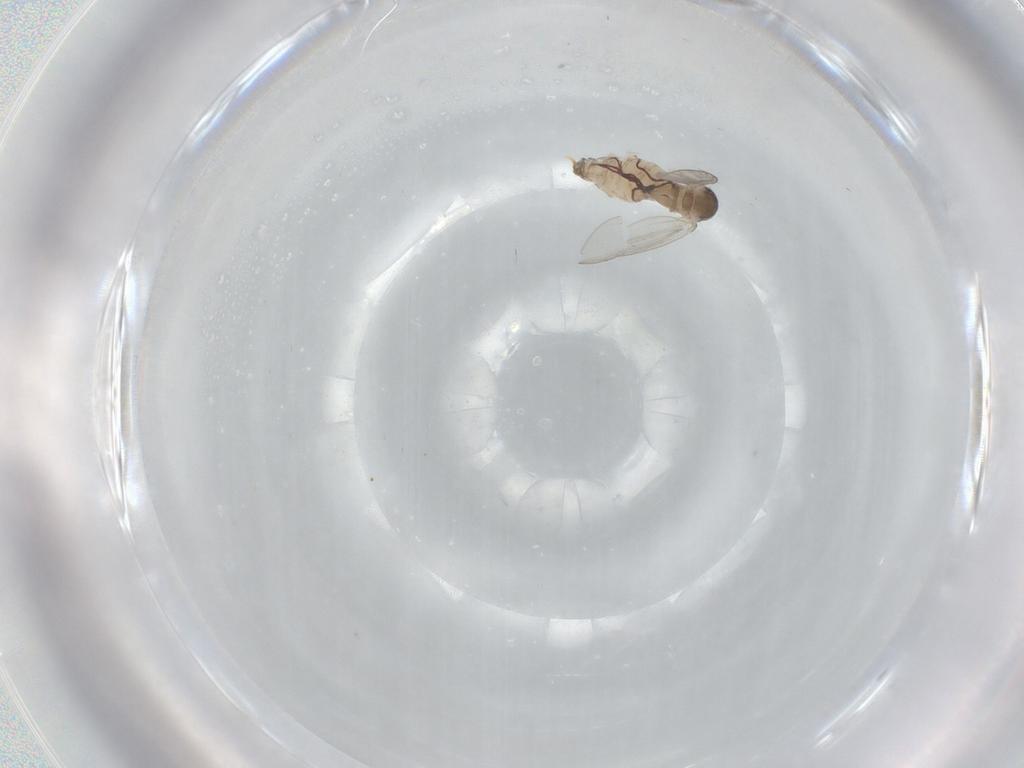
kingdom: Animalia
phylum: Arthropoda
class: Insecta
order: Diptera
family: Psychodidae
